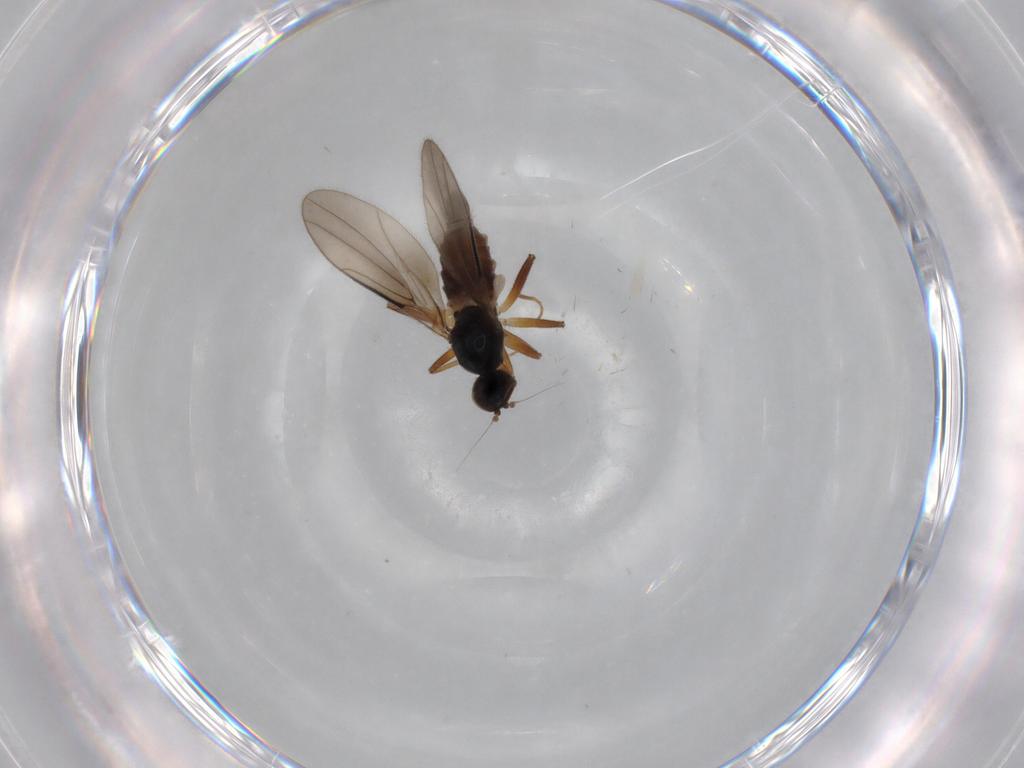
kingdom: Animalia
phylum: Arthropoda
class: Insecta
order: Diptera
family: Hybotidae
